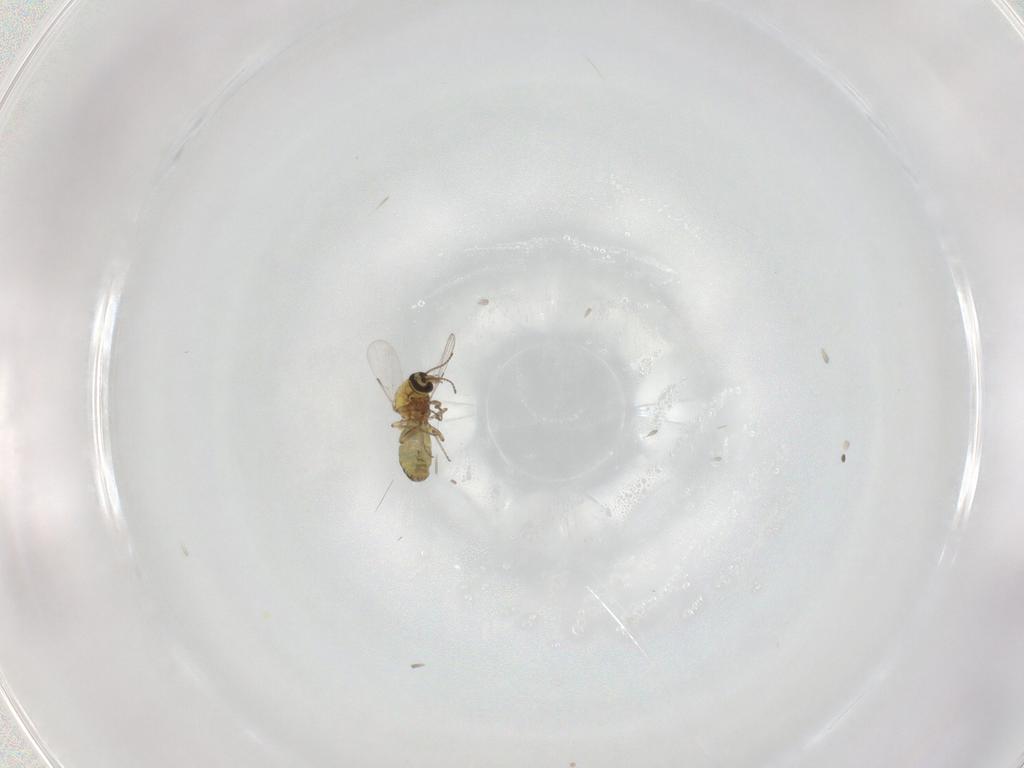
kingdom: Animalia
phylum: Arthropoda
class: Insecta
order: Diptera
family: Ceratopogonidae
